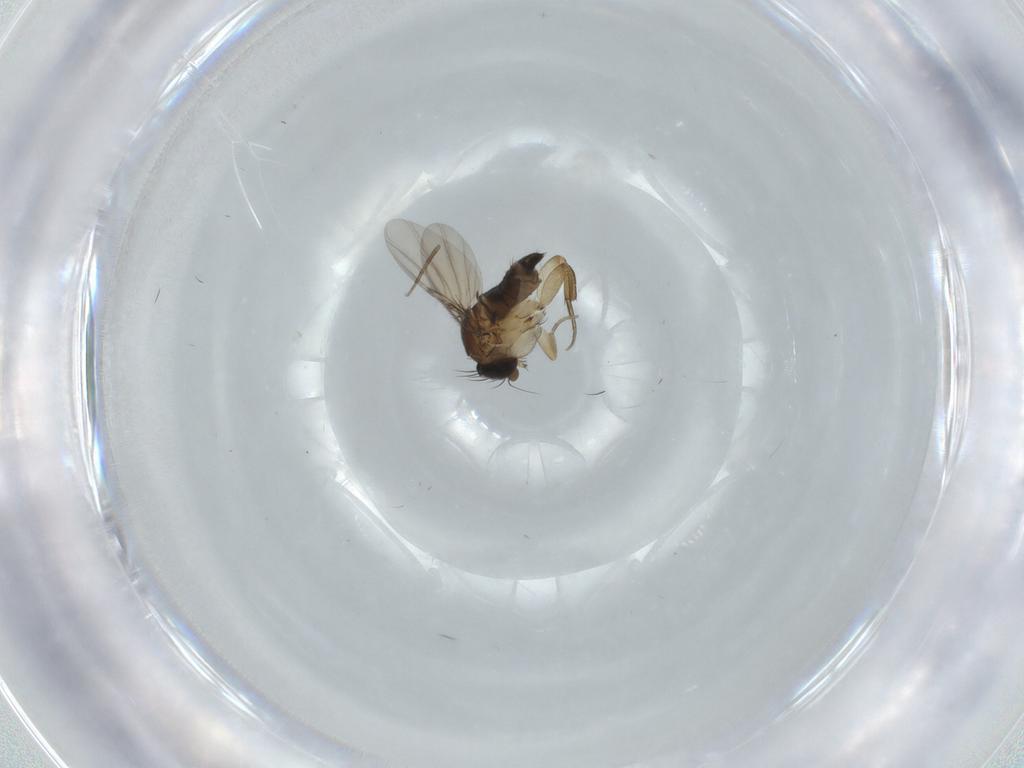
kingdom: Animalia
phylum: Arthropoda
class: Insecta
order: Diptera
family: Phoridae
